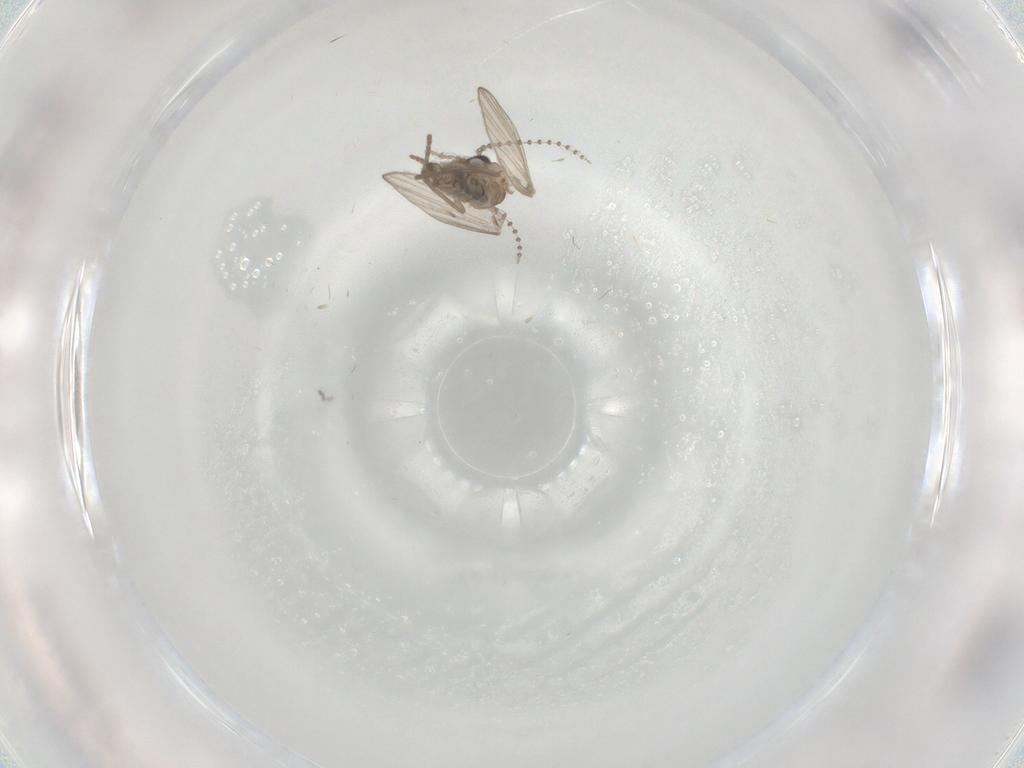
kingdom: Animalia
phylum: Arthropoda
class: Insecta
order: Diptera
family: Psychodidae
